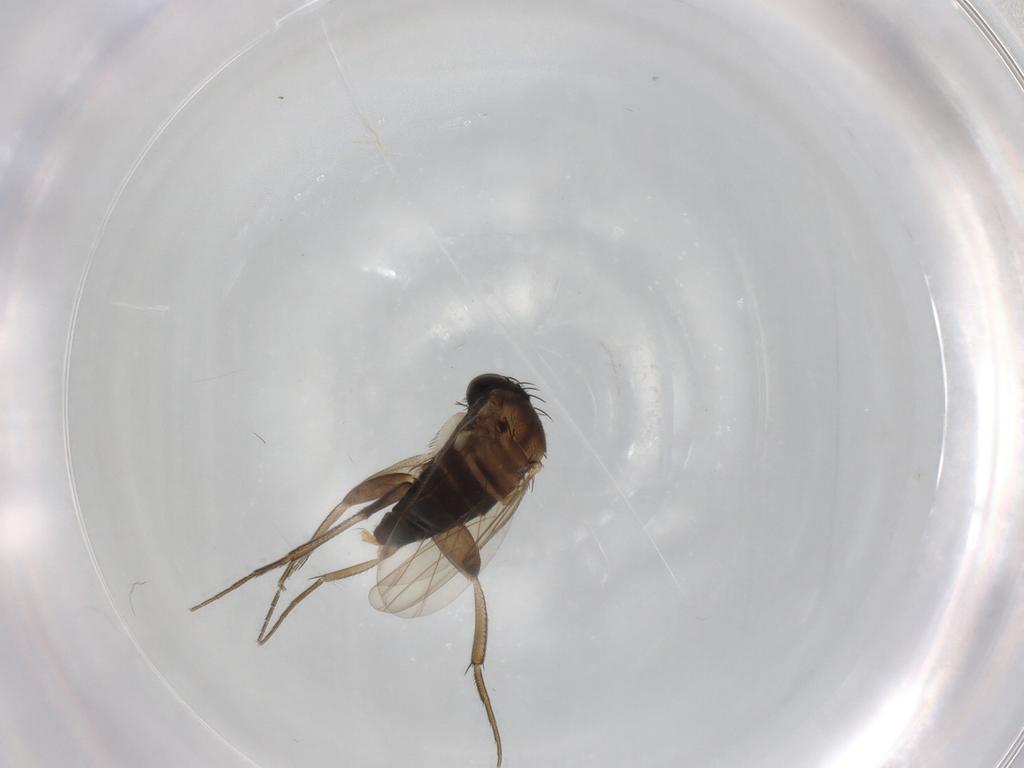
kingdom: Animalia
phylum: Arthropoda
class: Insecta
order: Diptera
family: Phoridae
